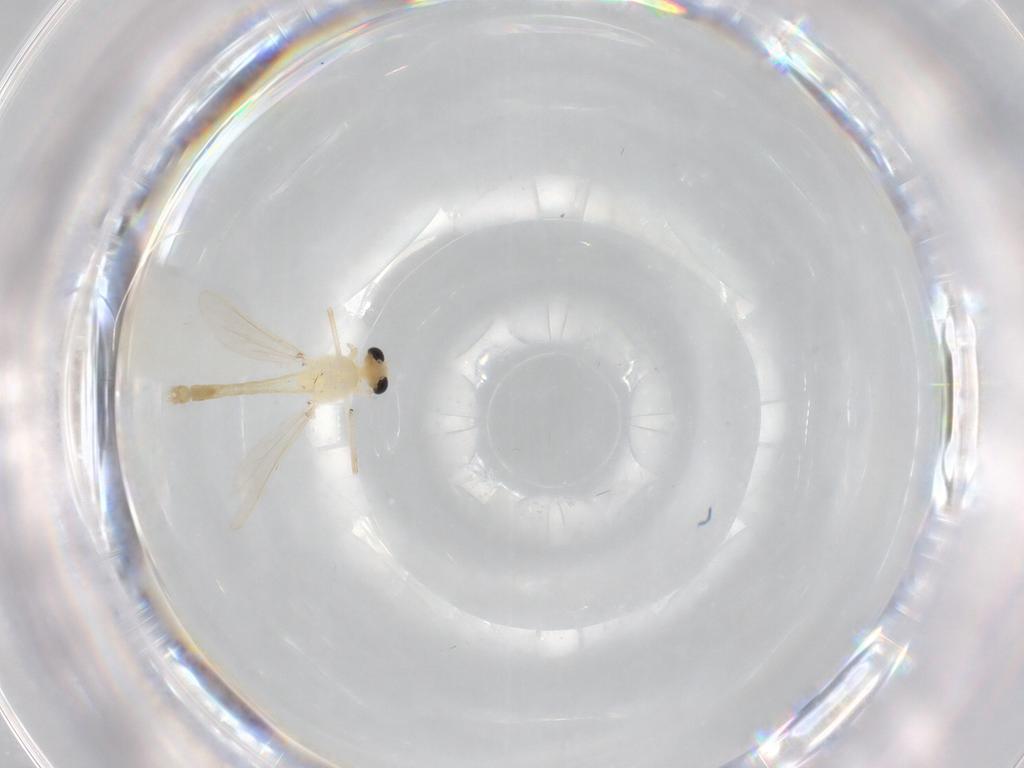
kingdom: Animalia
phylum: Arthropoda
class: Insecta
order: Diptera
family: Chironomidae
